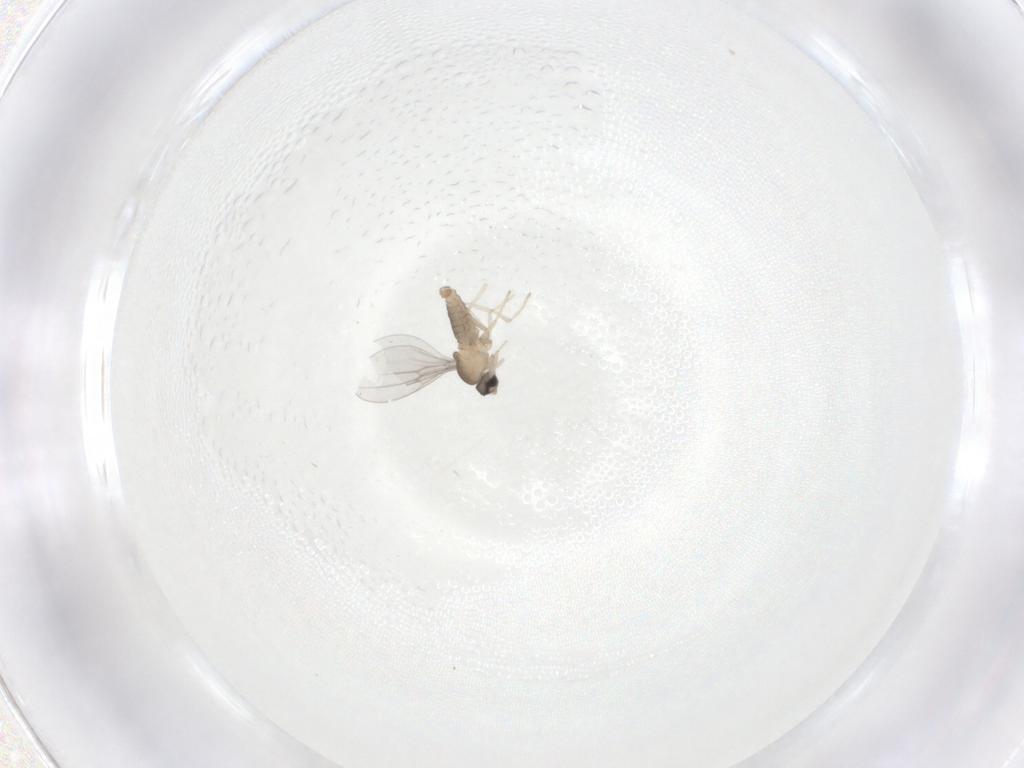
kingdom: Animalia
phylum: Arthropoda
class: Insecta
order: Diptera
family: Cecidomyiidae
